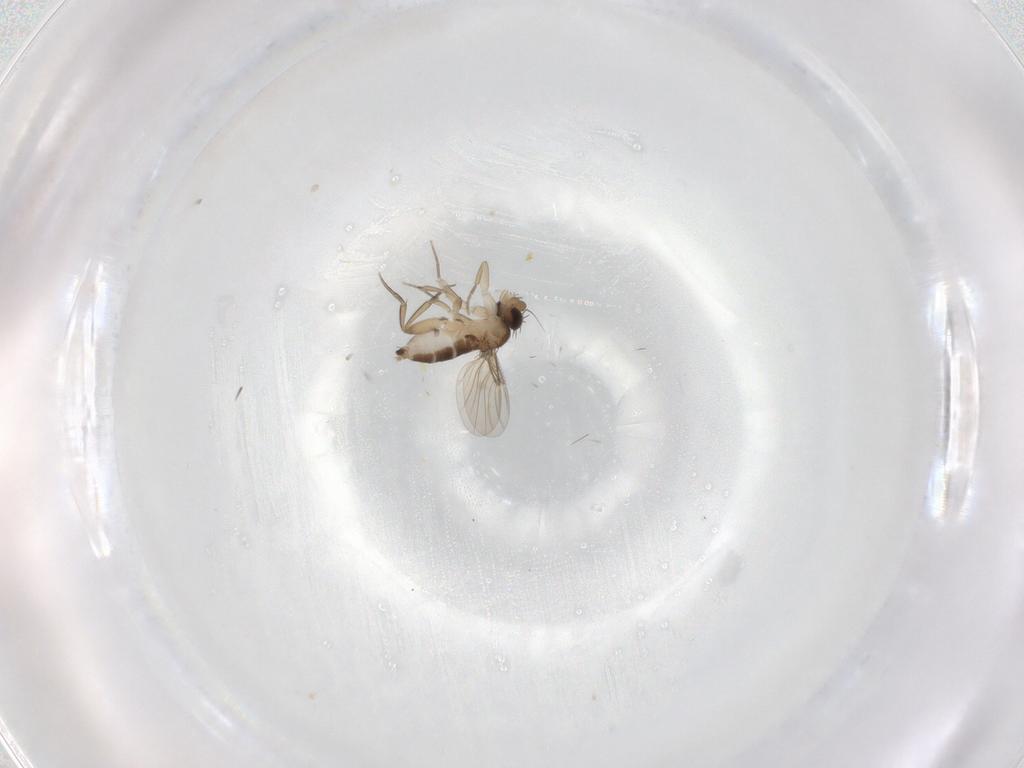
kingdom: Animalia
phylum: Arthropoda
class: Insecta
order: Diptera
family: Phoridae
